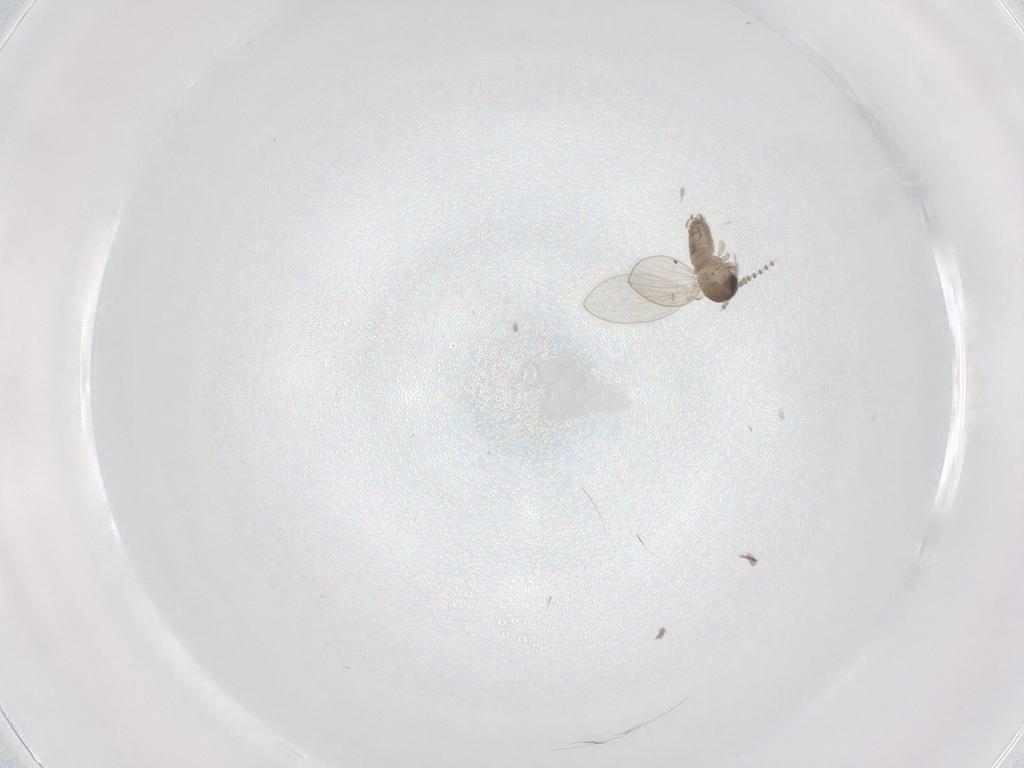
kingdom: Animalia
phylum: Arthropoda
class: Insecta
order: Diptera
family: Psychodidae
